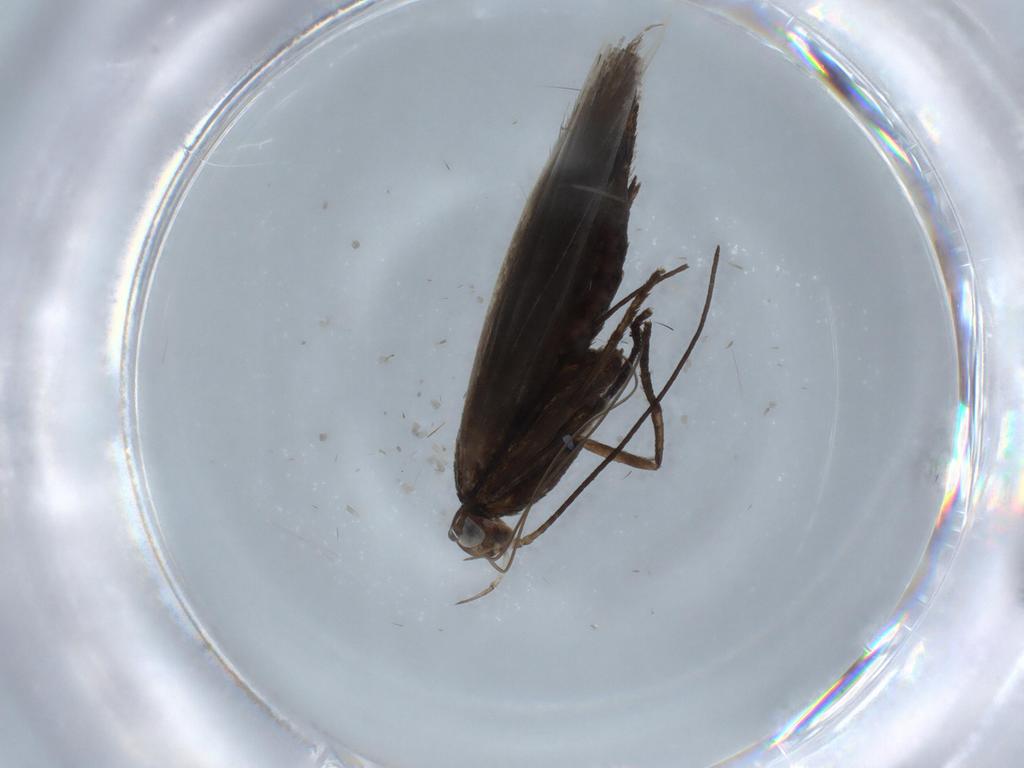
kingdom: Animalia
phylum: Arthropoda
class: Insecta
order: Lepidoptera
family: Coleophoridae
